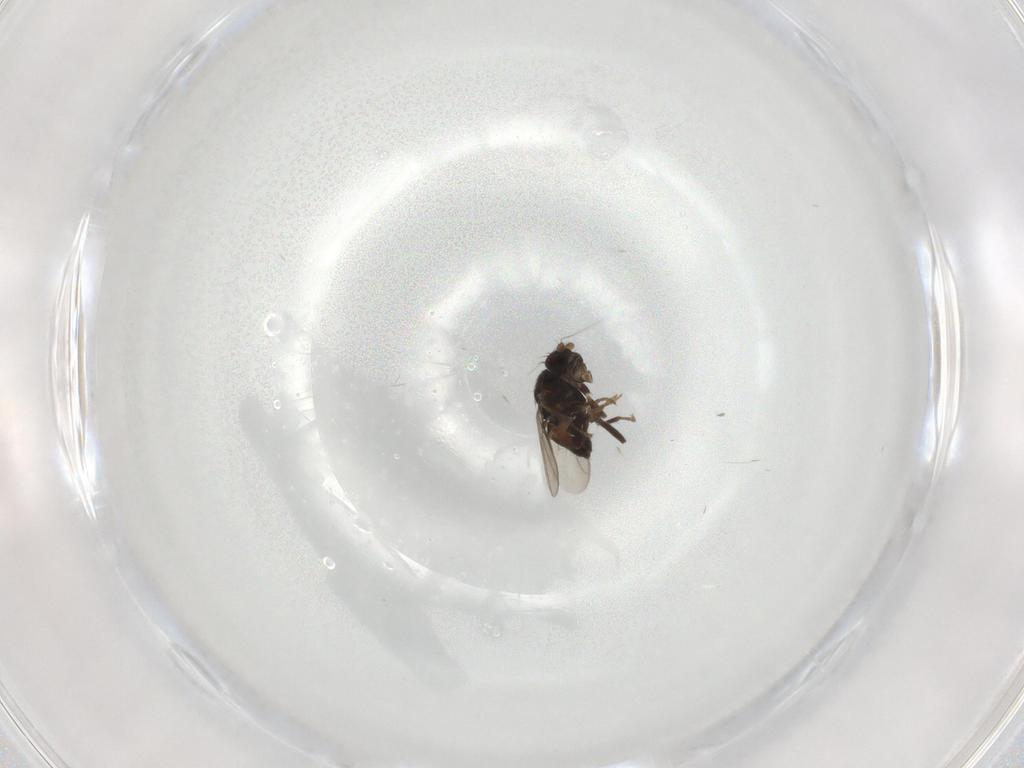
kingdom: Animalia
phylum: Arthropoda
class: Insecta
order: Diptera
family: Sphaeroceridae
